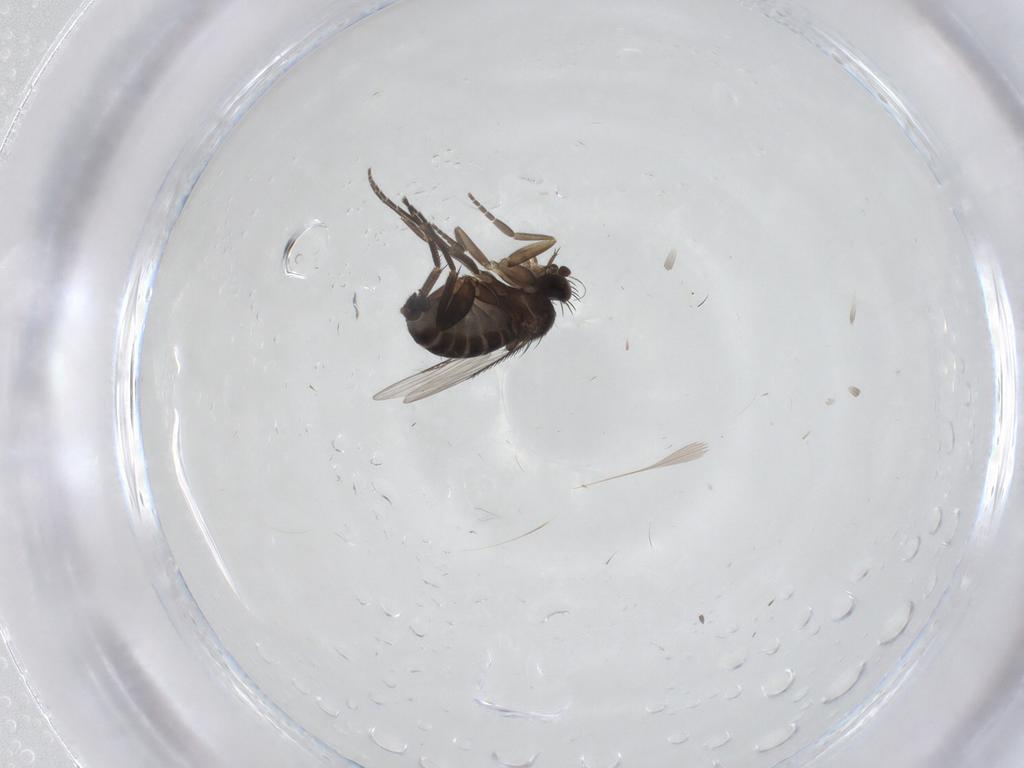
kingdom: Animalia
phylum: Arthropoda
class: Insecta
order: Diptera
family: Phoridae
